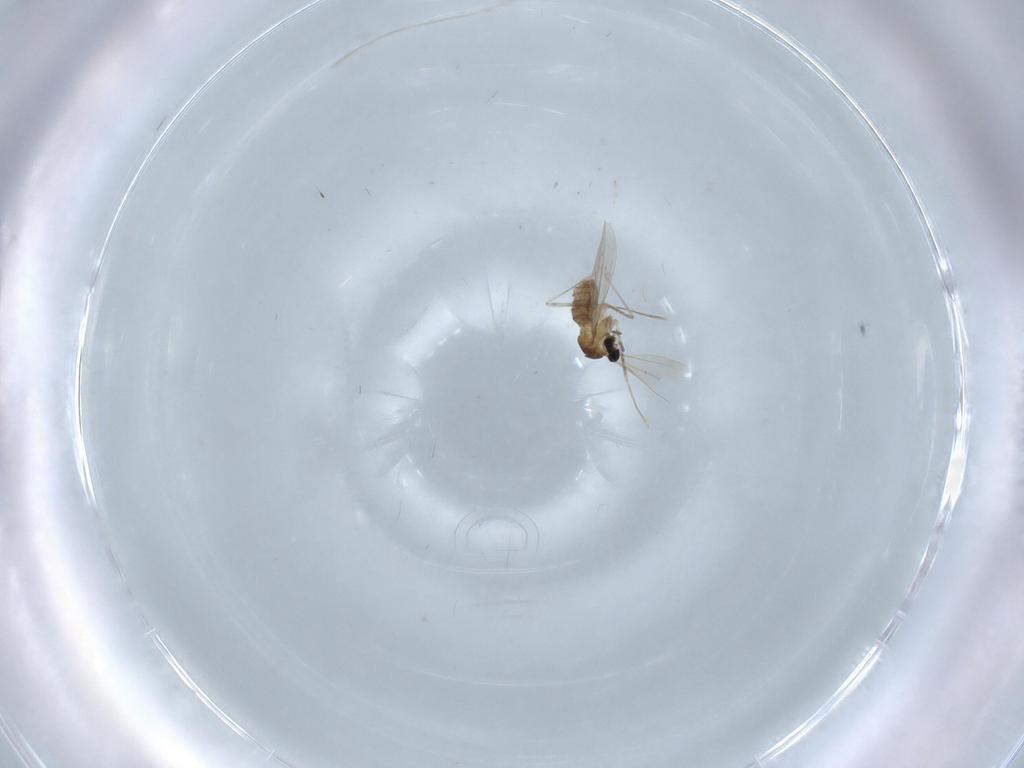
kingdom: Animalia
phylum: Arthropoda
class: Insecta
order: Diptera
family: Cecidomyiidae
